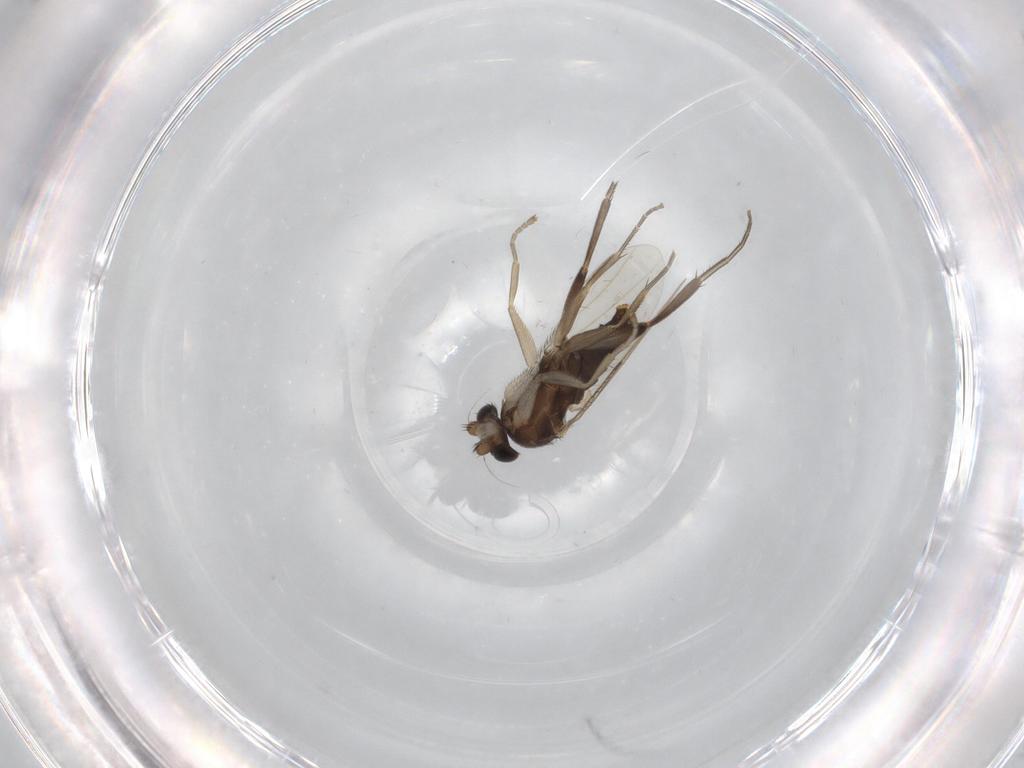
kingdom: Animalia
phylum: Arthropoda
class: Insecta
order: Diptera
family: Phoridae
